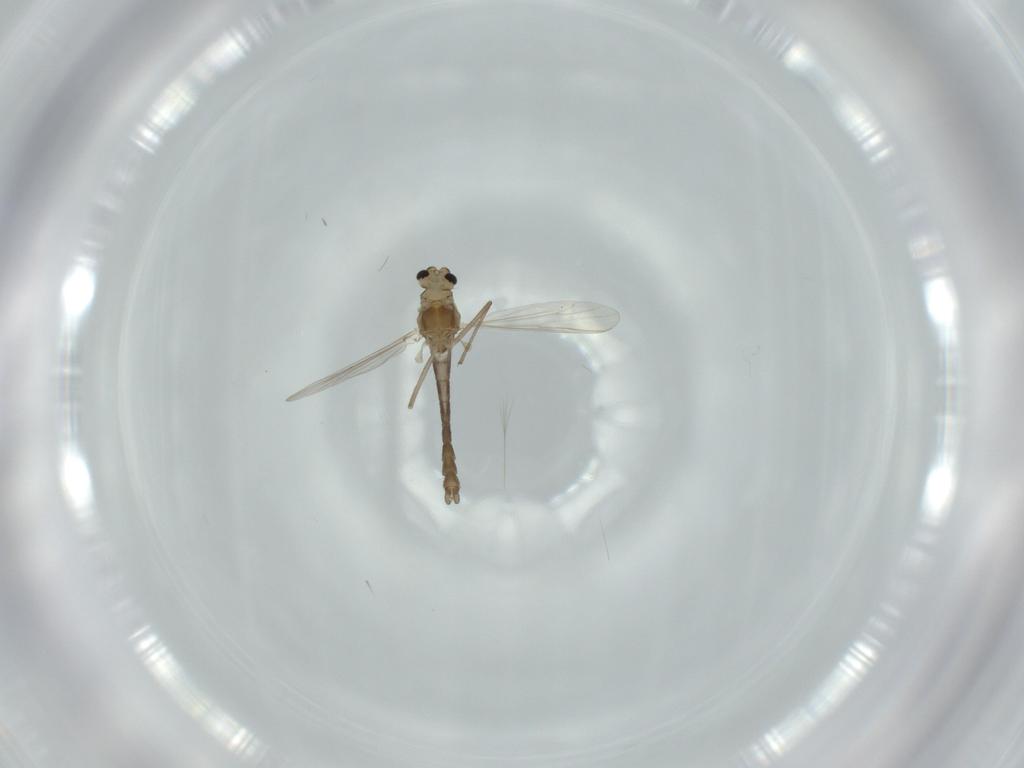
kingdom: Animalia
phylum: Arthropoda
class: Insecta
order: Diptera
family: Chironomidae
